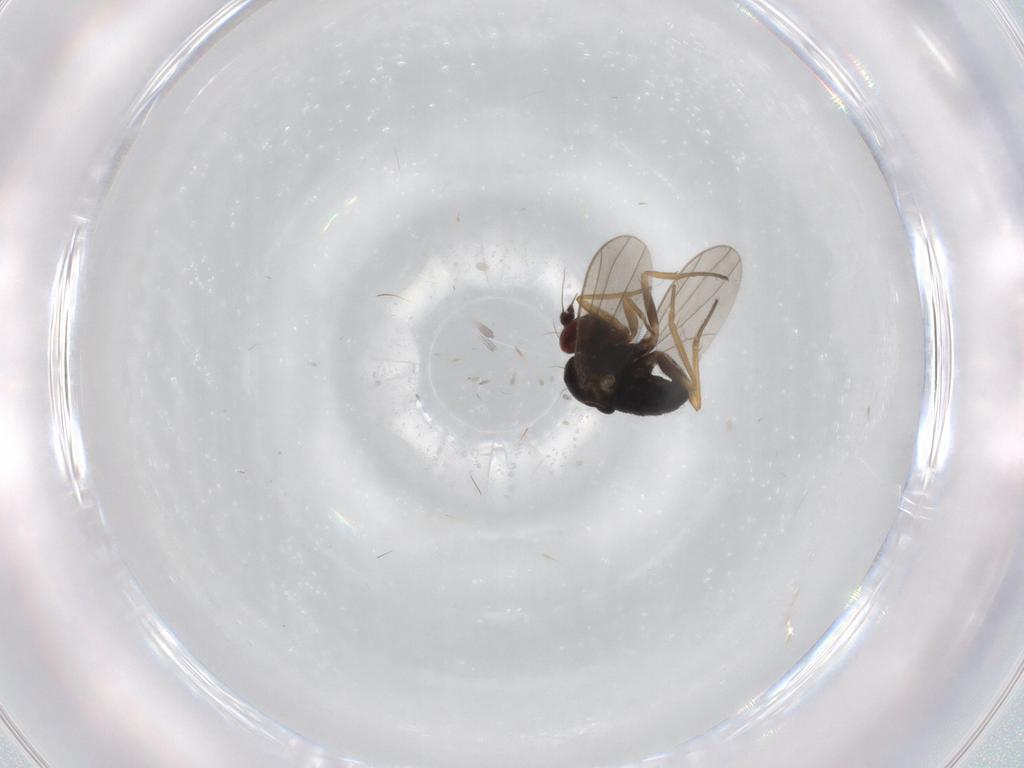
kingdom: Animalia
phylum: Arthropoda
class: Insecta
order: Diptera
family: Dolichopodidae
